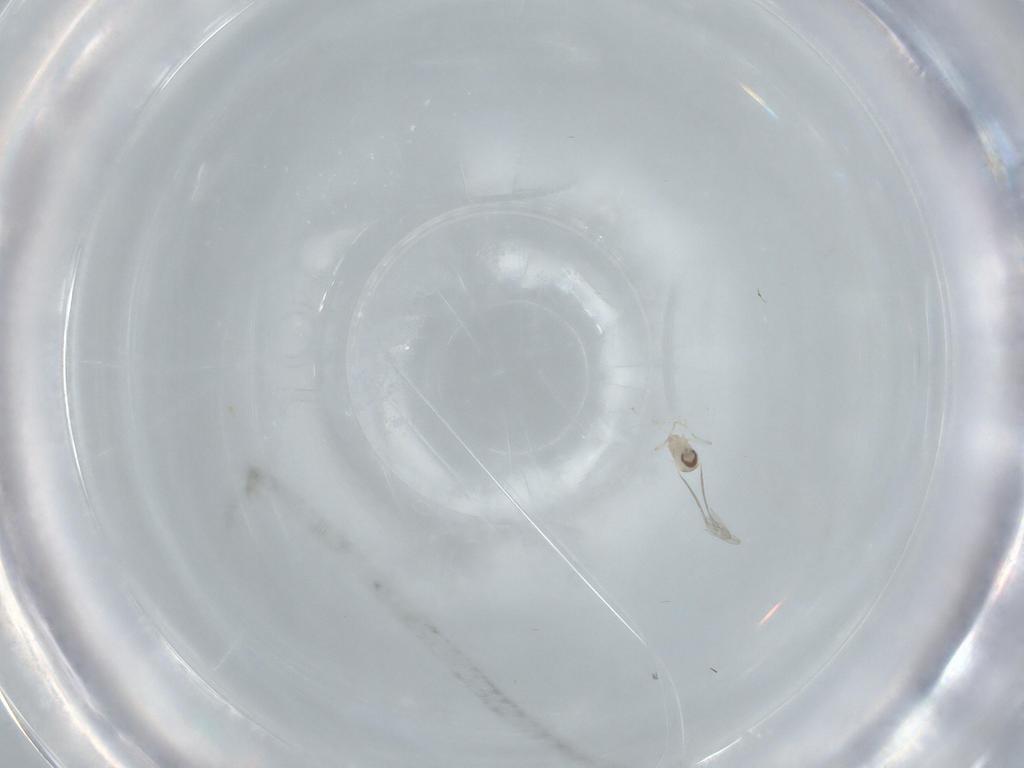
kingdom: Animalia
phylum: Arthropoda
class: Insecta
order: Diptera
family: Cecidomyiidae
